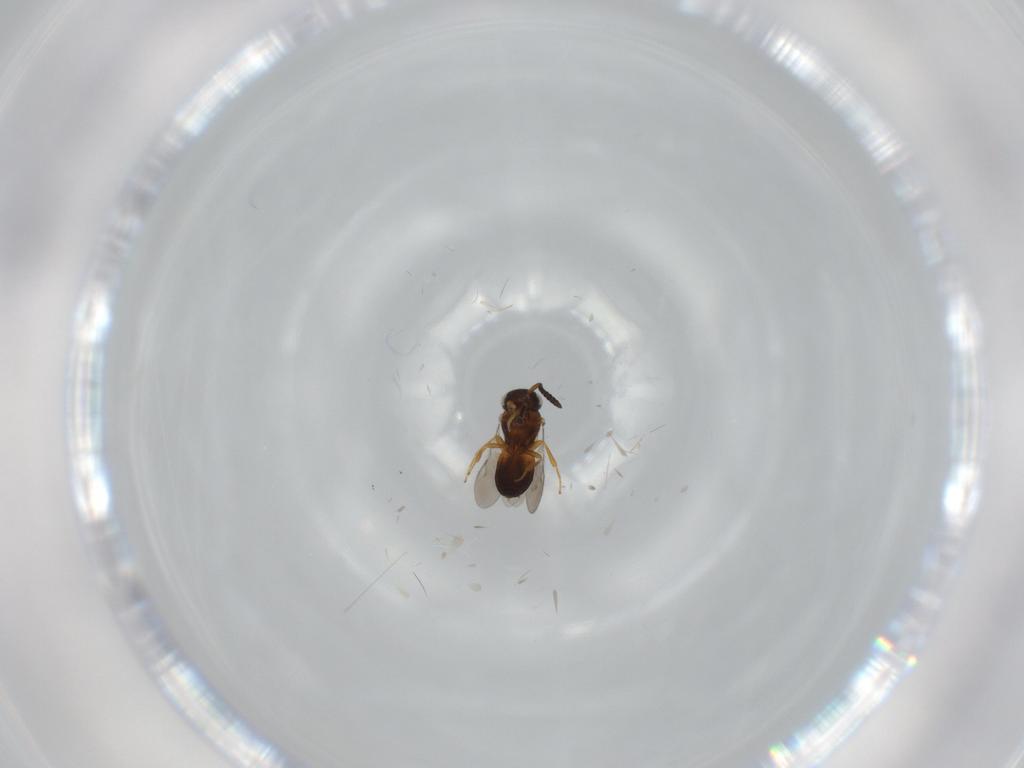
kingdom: Animalia
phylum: Arthropoda
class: Insecta
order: Hymenoptera
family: Scelionidae
